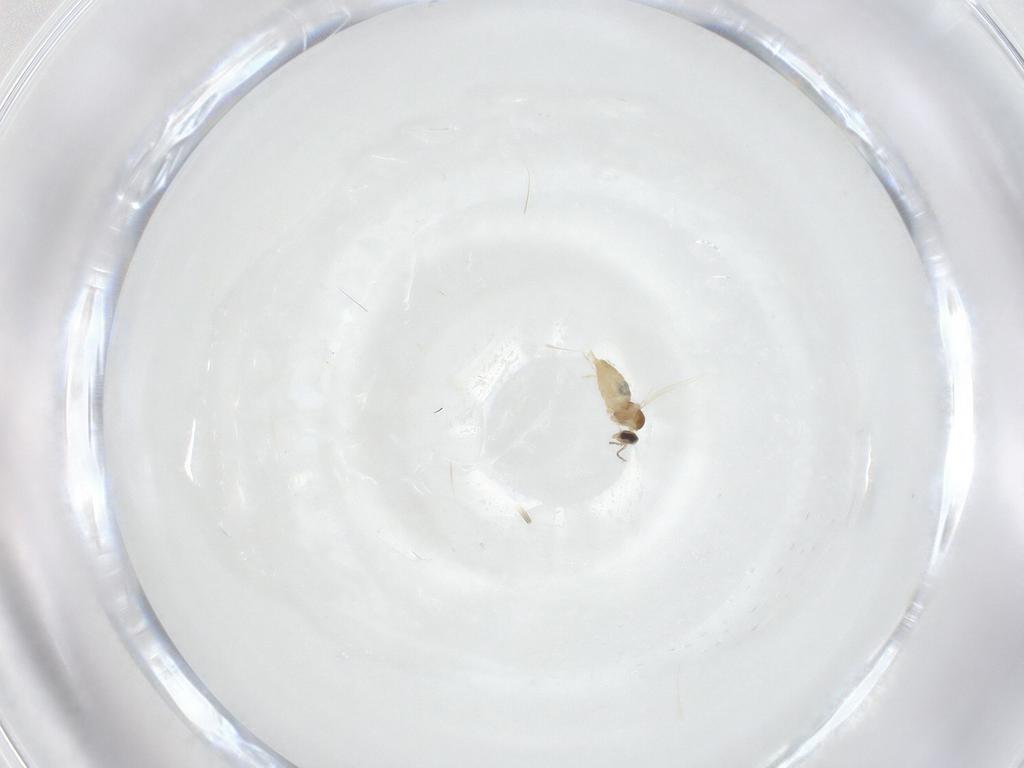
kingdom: Animalia
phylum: Arthropoda
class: Insecta
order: Diptera
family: Cecidomyiidae
